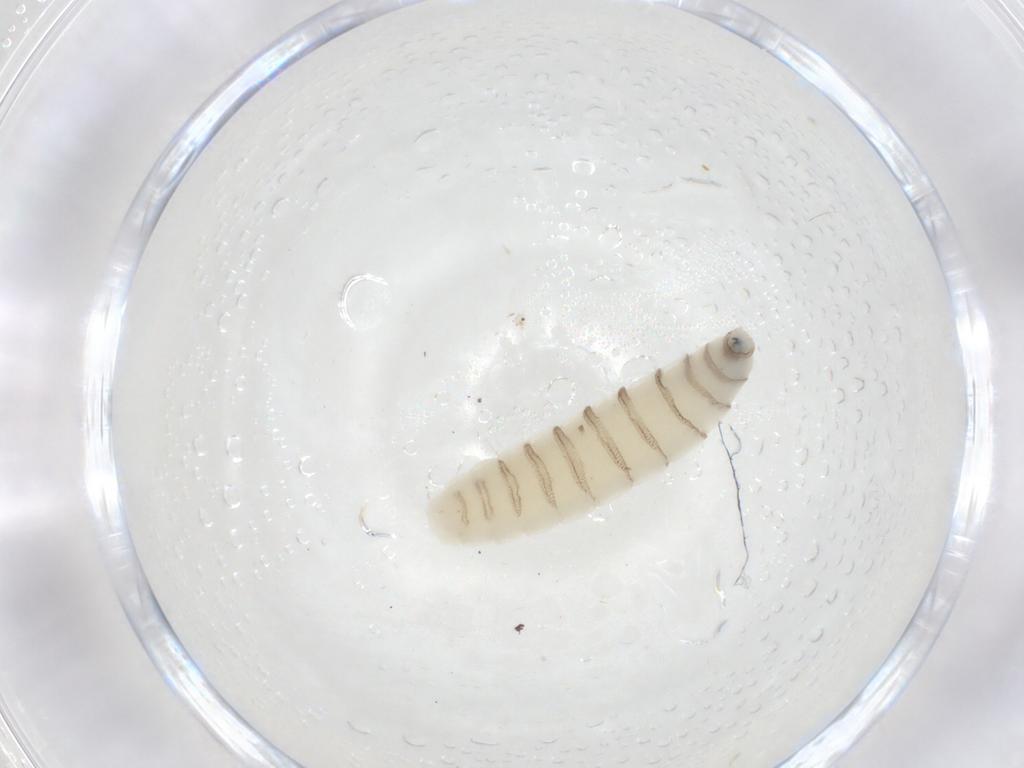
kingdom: Animalia
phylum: Arthropoda
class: Insecta
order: Diptera
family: Sarcophagidae
